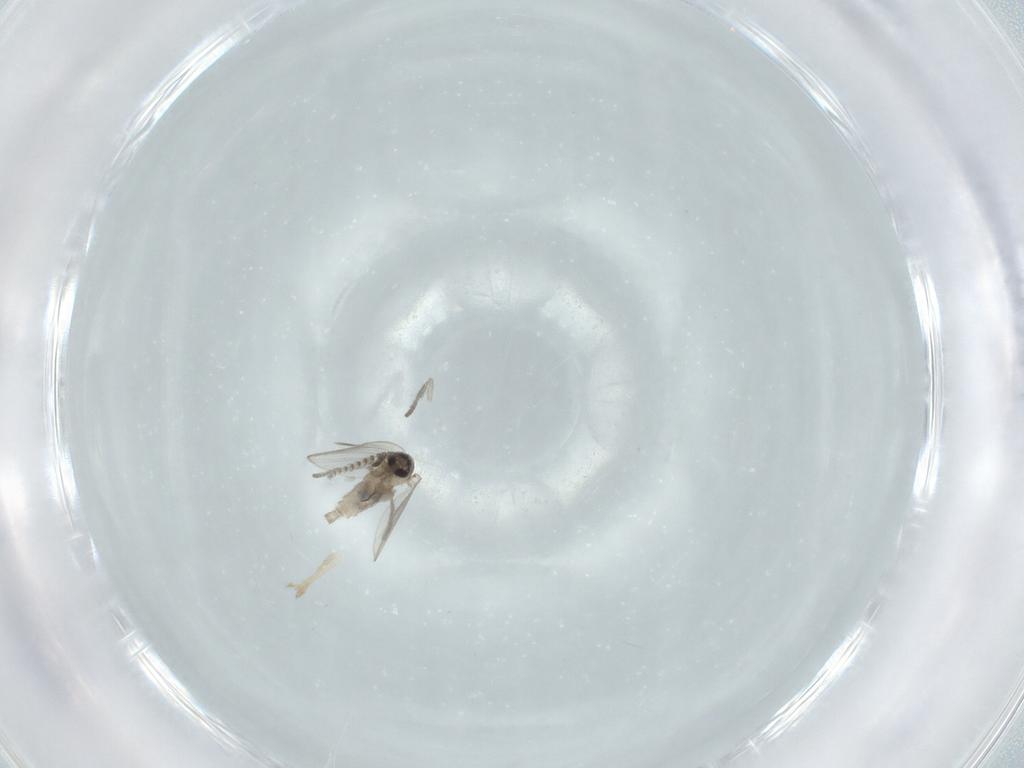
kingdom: Animalia
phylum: Arthropoda
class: Insecta
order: Diptera
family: Psychodidae
